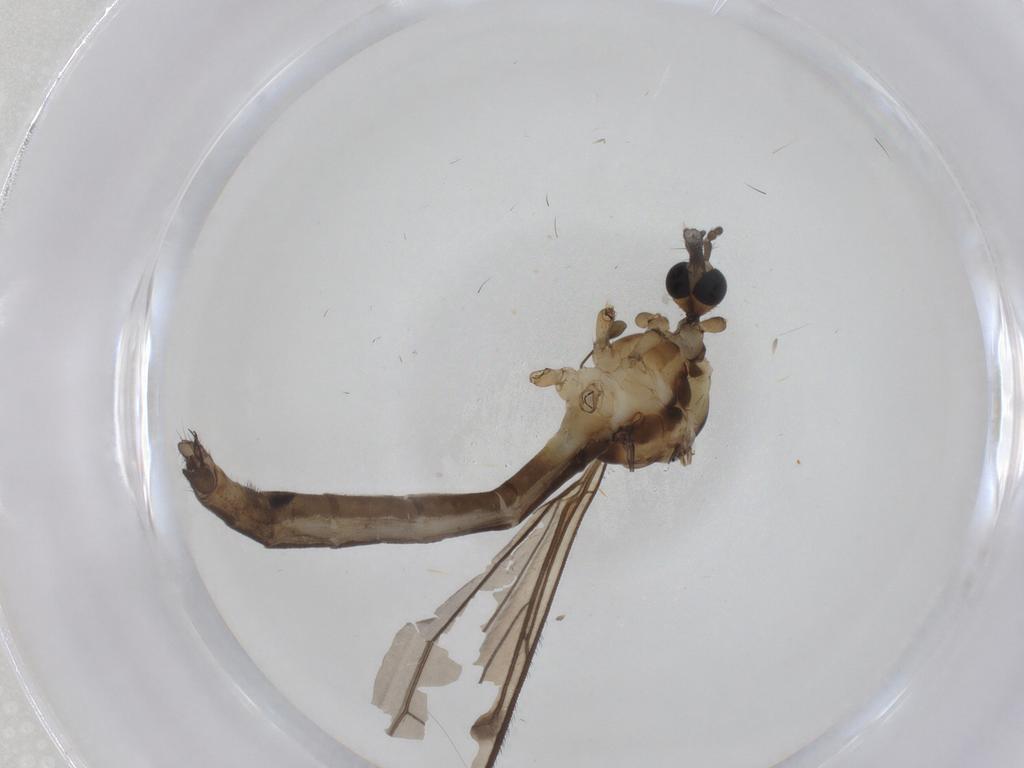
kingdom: Animalia
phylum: Arthropoda
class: Insecta
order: Diptera
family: Limoniidae
